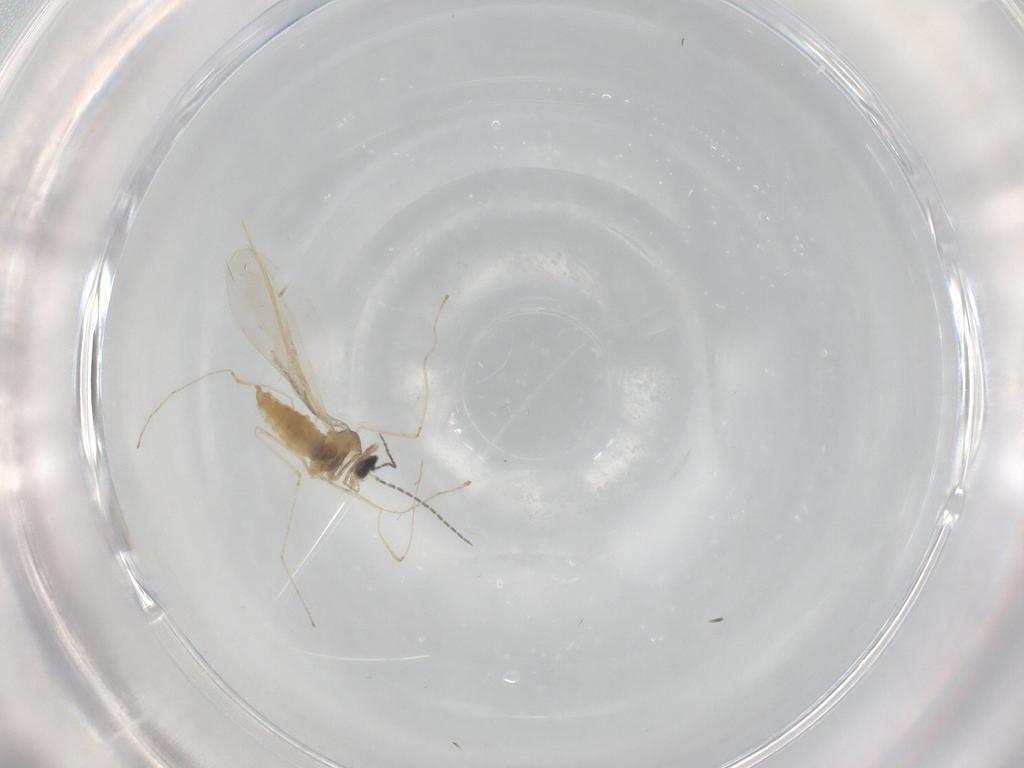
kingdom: Animalia
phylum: Arthropoda
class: Insecta
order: Diptera
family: Cecidomyiidae
